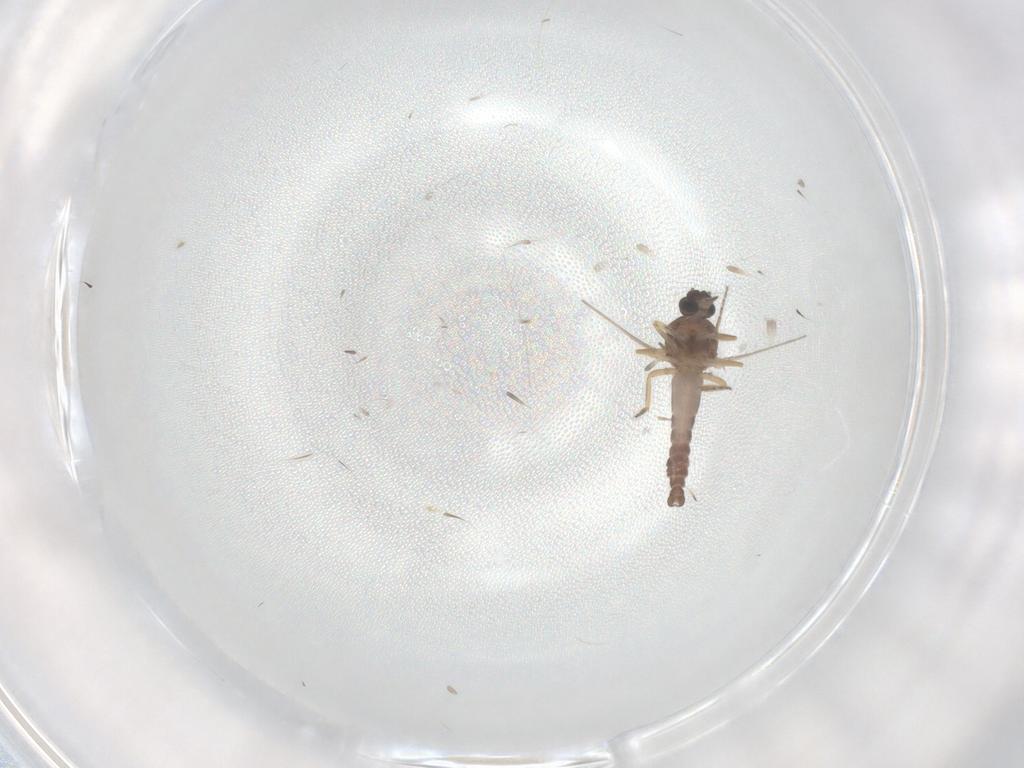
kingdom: Animalia
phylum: Arthropoda
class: Insecta
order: Diptera
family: Ceratopogonidae
